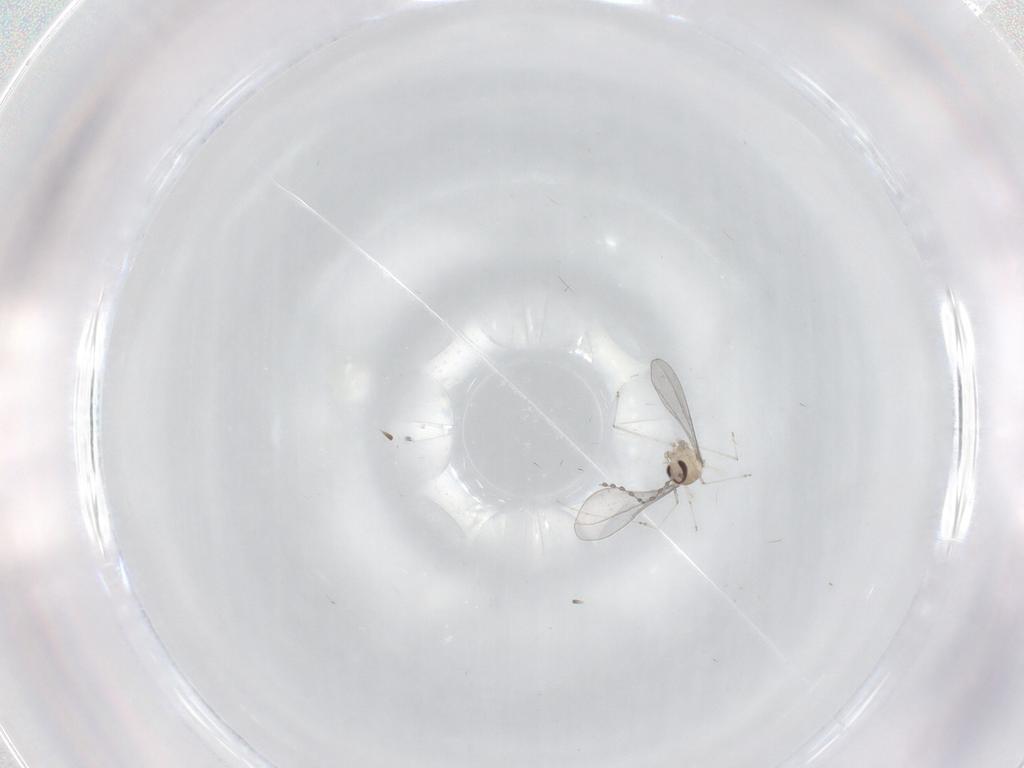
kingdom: Animalia
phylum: Arthropoda
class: Insecta
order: Diptera
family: Cecidomyiidae
